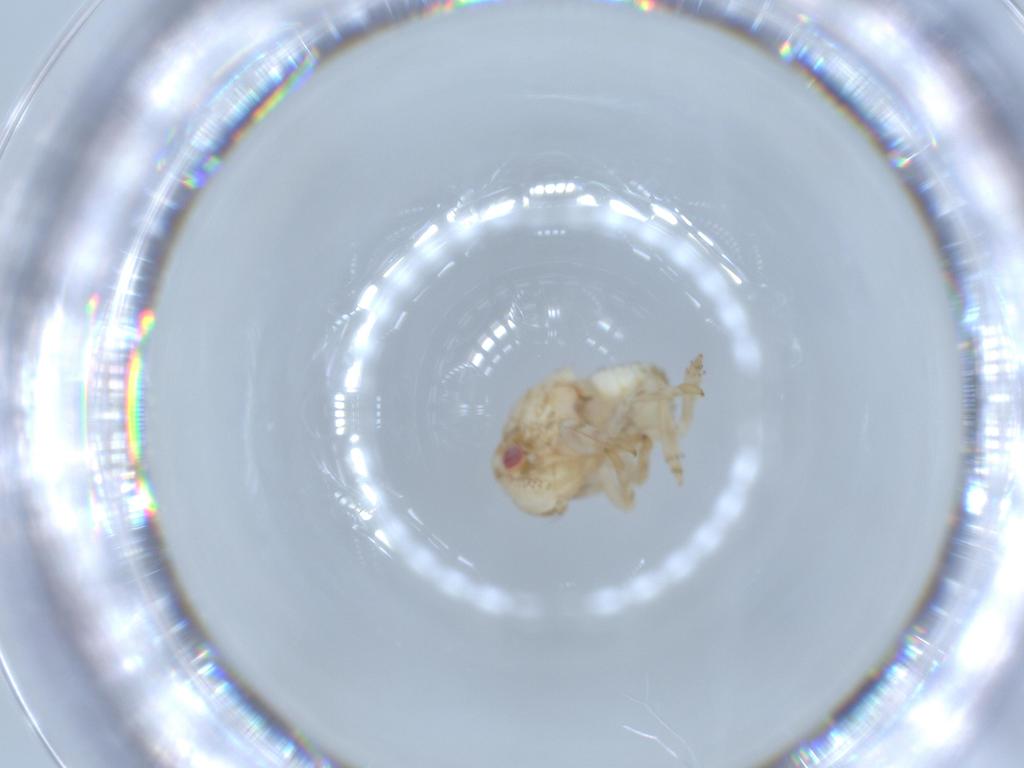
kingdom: Animalia
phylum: Arthropoda
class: Insecta
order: Hemiptera
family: Acanaloniidae
